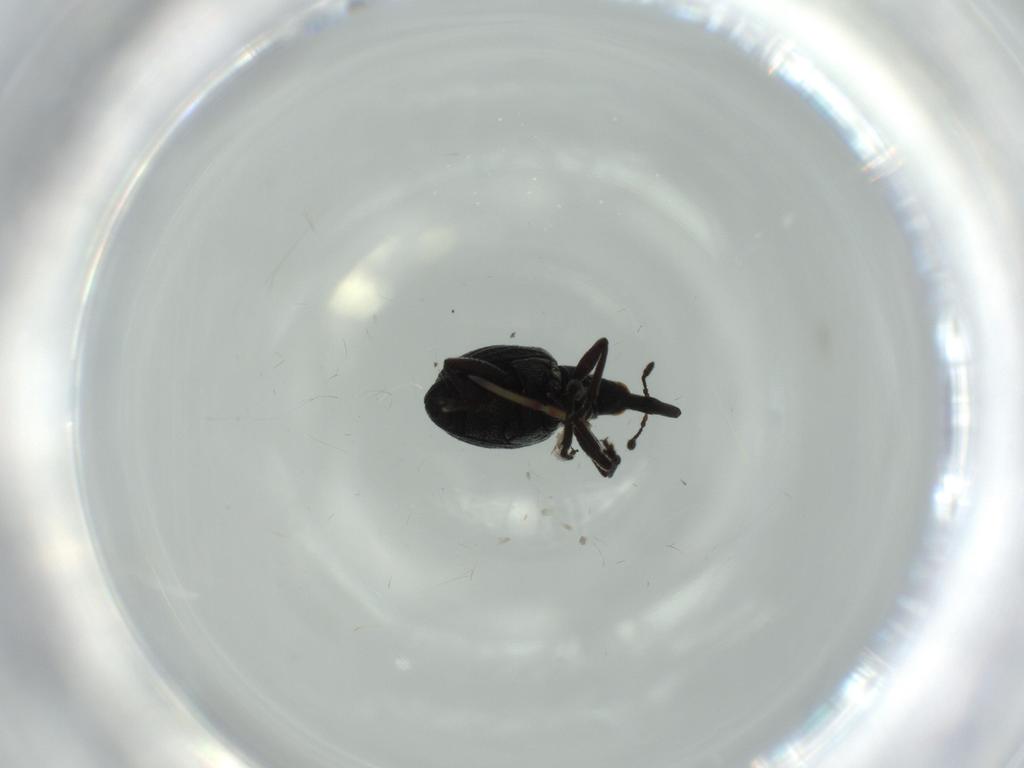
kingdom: Animalia
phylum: Arthropoda
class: Insecta
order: Coleoptera
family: Brentidae
